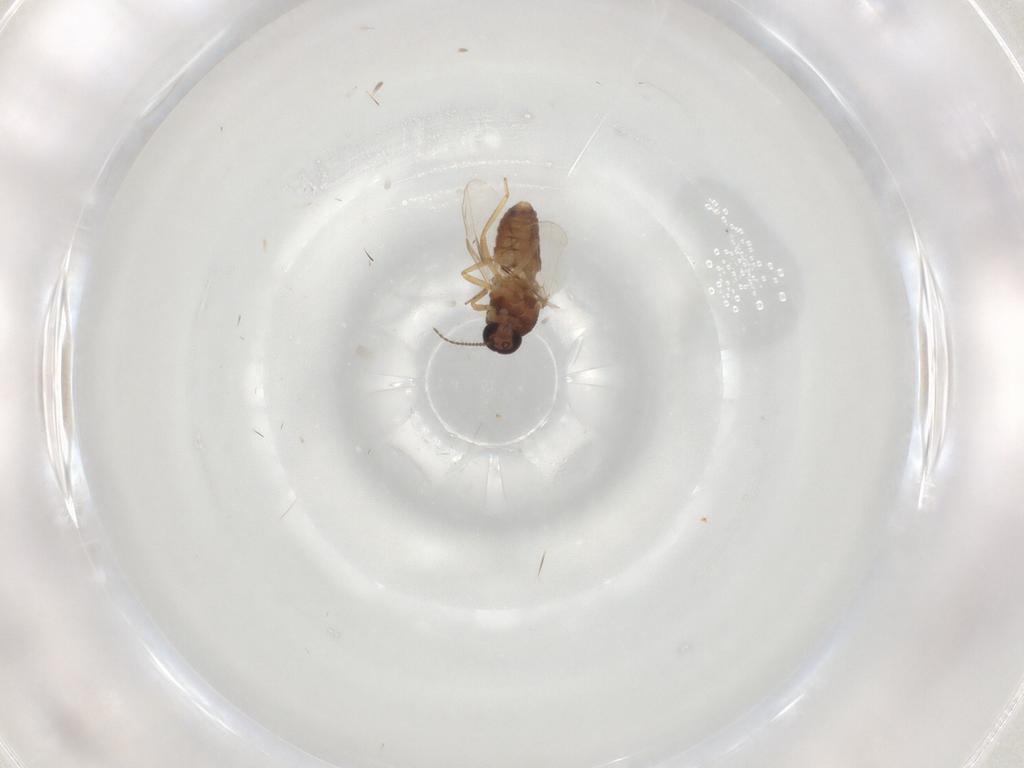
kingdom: Animalia
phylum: Arthropoda
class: Insecta
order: Diptera
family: Ceratopogonidae
